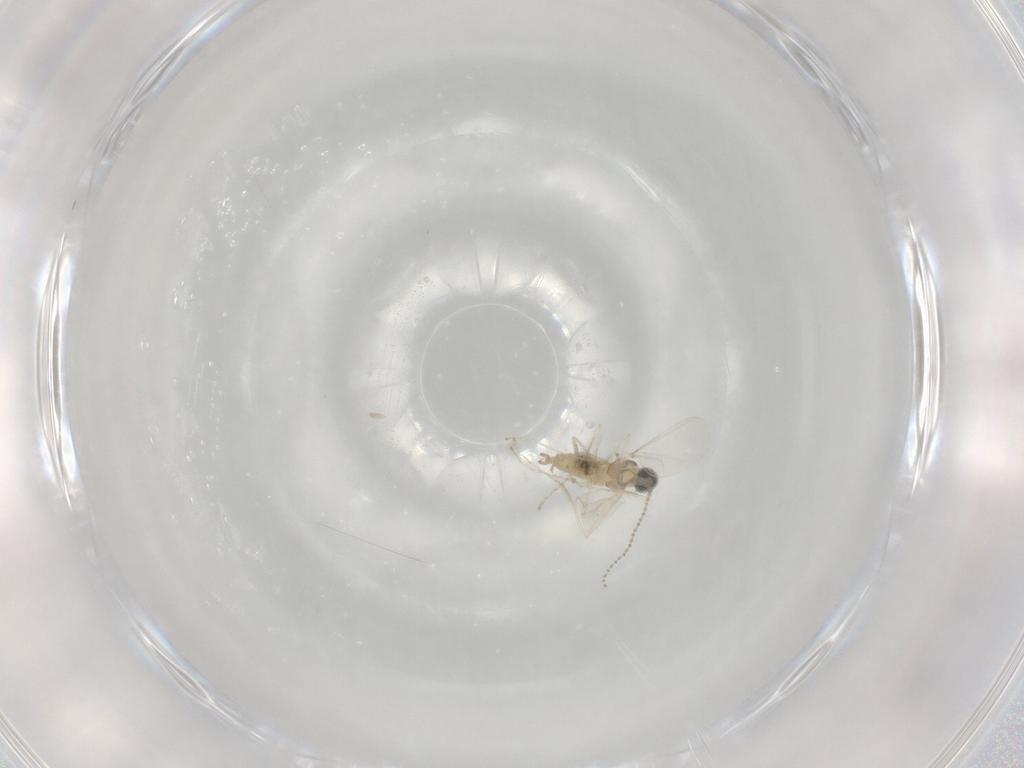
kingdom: Animalia
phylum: Arthropoda
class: Insecta
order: Diptera
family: Cecidomyiidae
